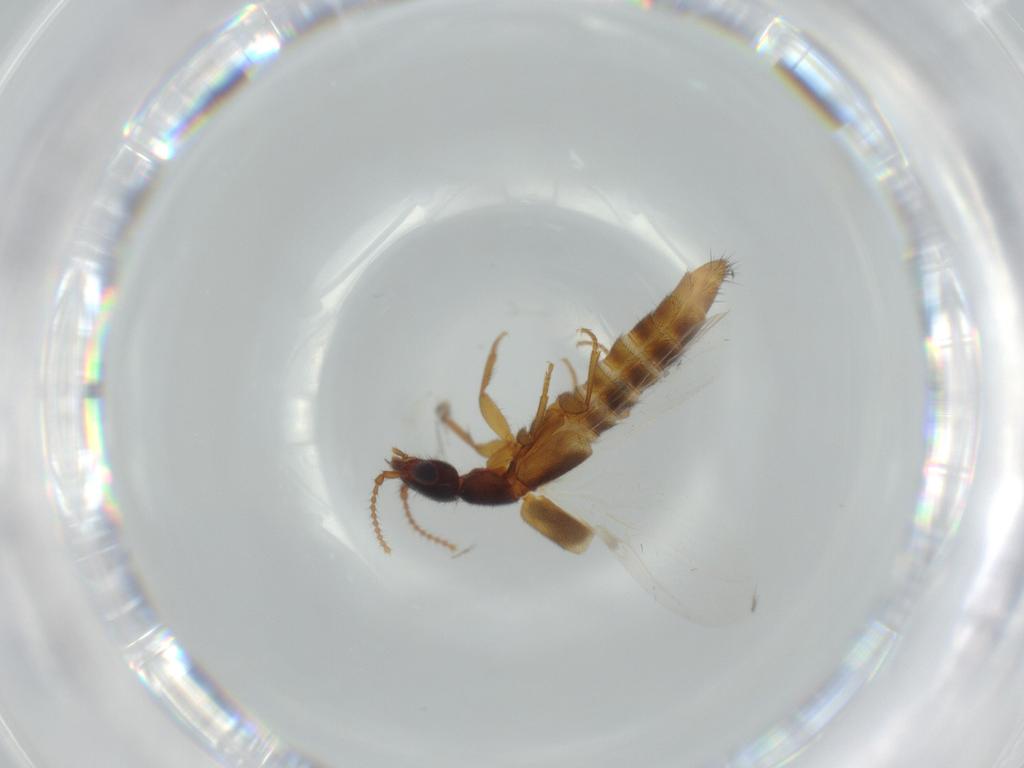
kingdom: Animalia
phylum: Arthropoda
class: Insecta
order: Coleoptera
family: Staphylinidae
